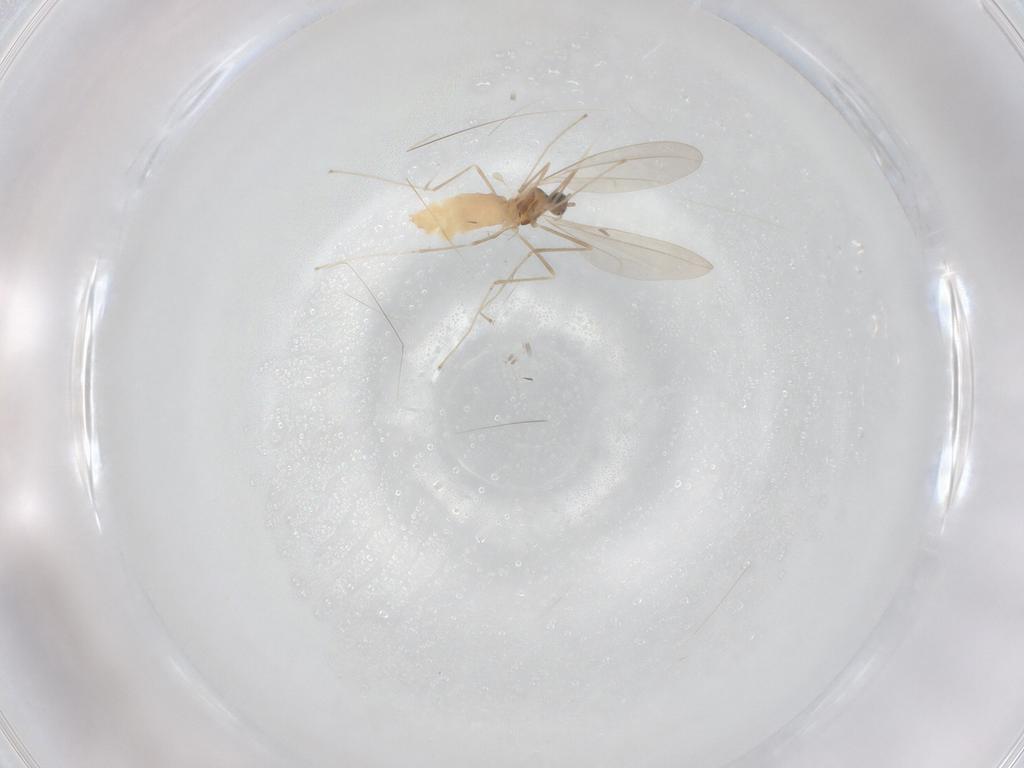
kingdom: Animalia
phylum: Arthropoda
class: Insecta
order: Diptera
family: Cecidomyiidae
